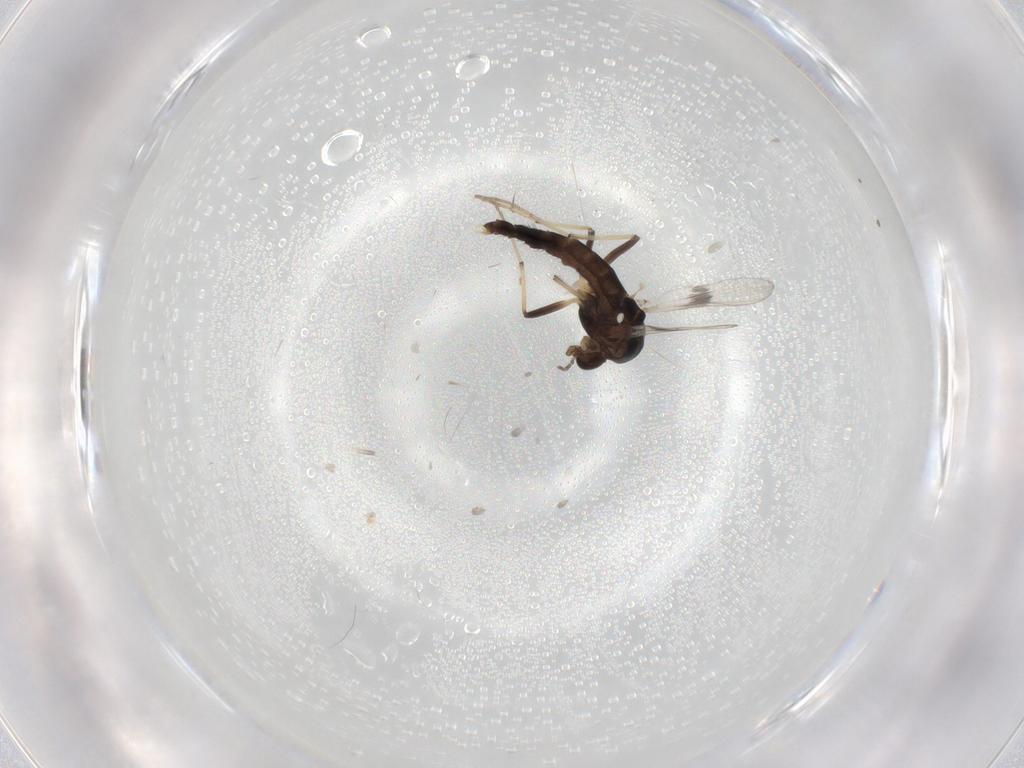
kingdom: Animalia
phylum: Arthropoda
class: Insecta
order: Diptera
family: Chironomidae
